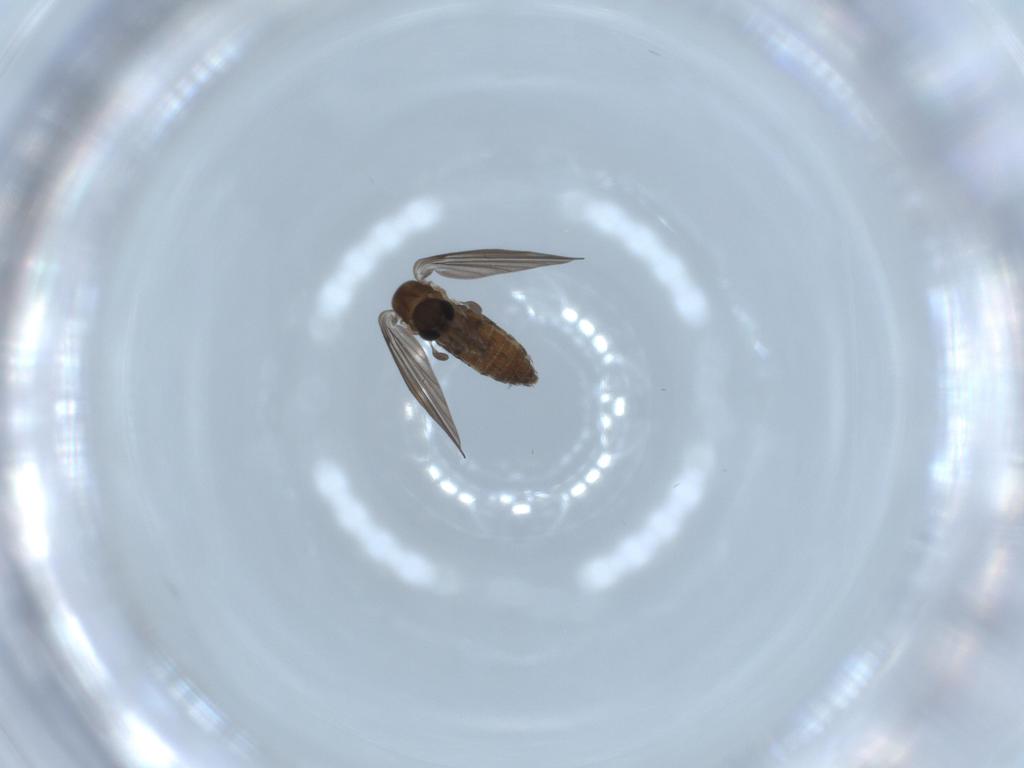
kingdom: Animalia
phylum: Arthropoda
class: Insecta
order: Diptera
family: Psychodidae
